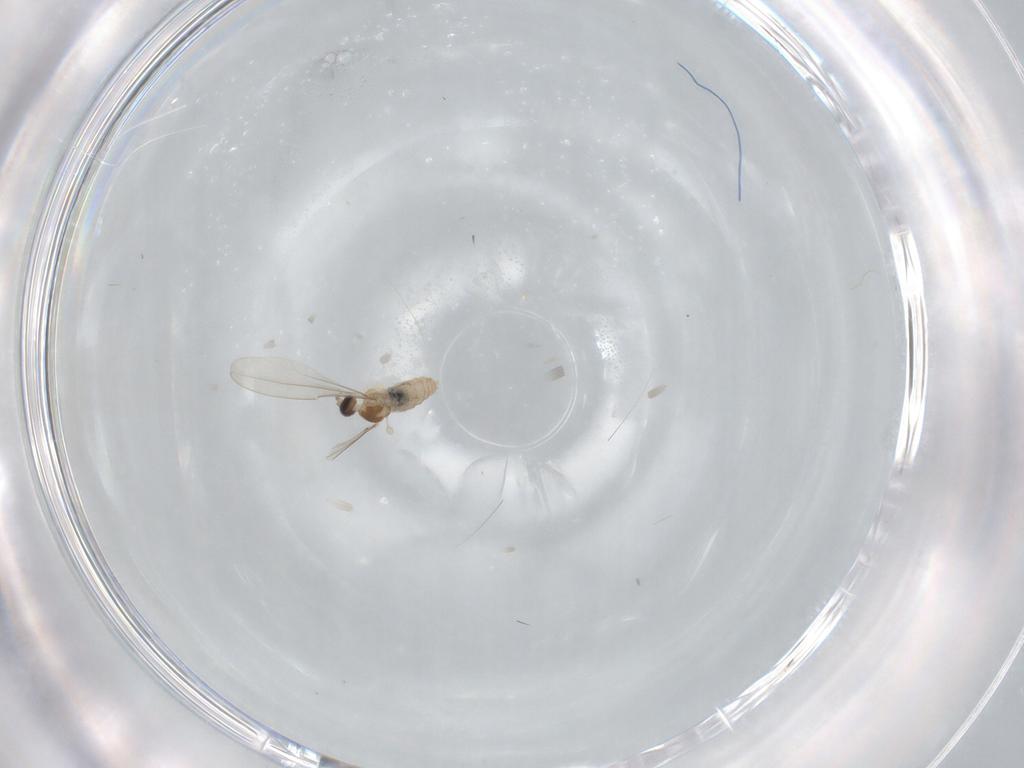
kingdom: Animalia
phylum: Arthropoda
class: Insecta
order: Diptera
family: Cecidomyiidae
